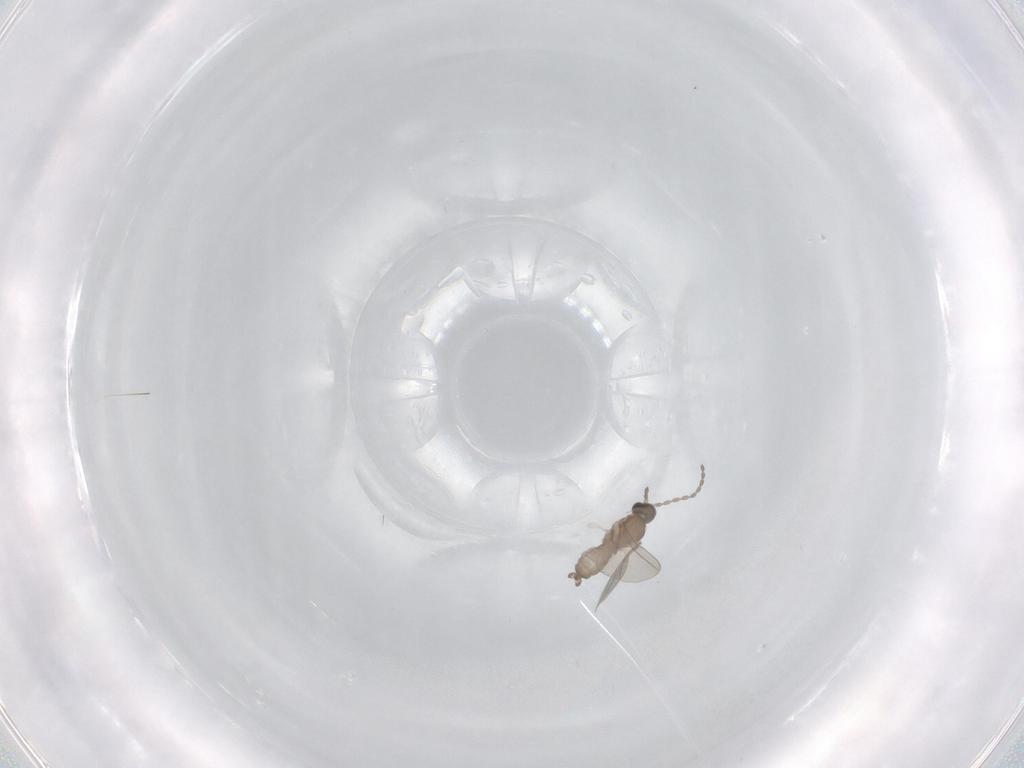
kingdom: Animalia
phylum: Arthropoda
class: Insecta
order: Diptera
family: Cecidomyiidae
